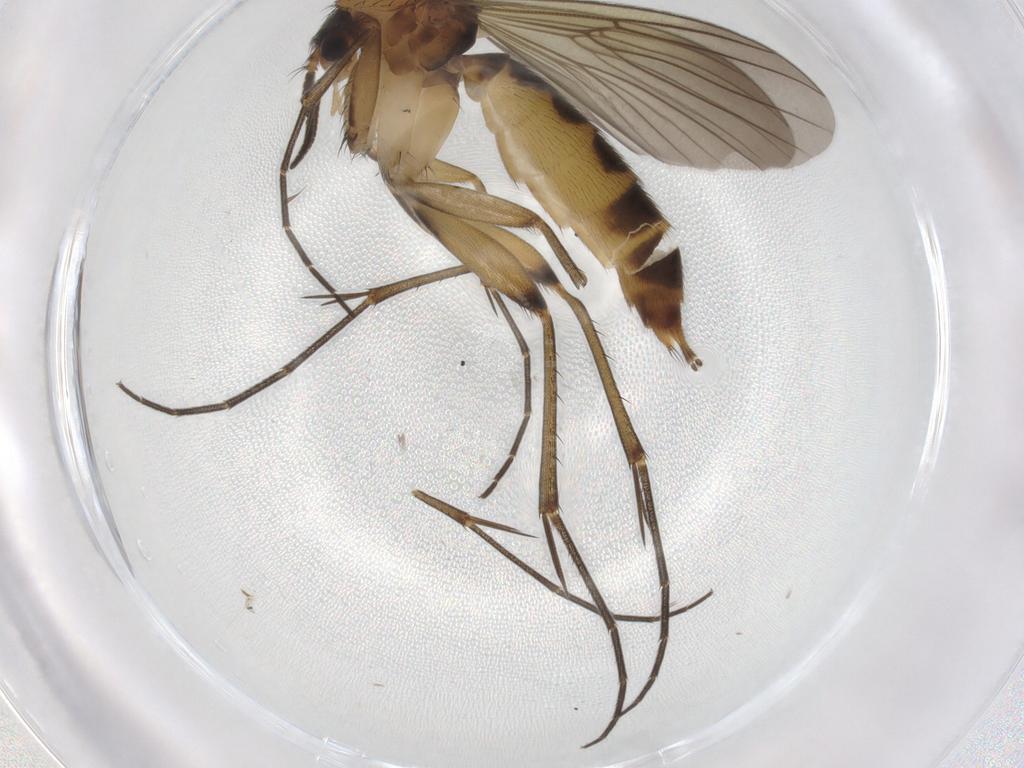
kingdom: Animalia
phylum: Arthropoda
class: Insecta
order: Diptera
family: Mycetophilidae
